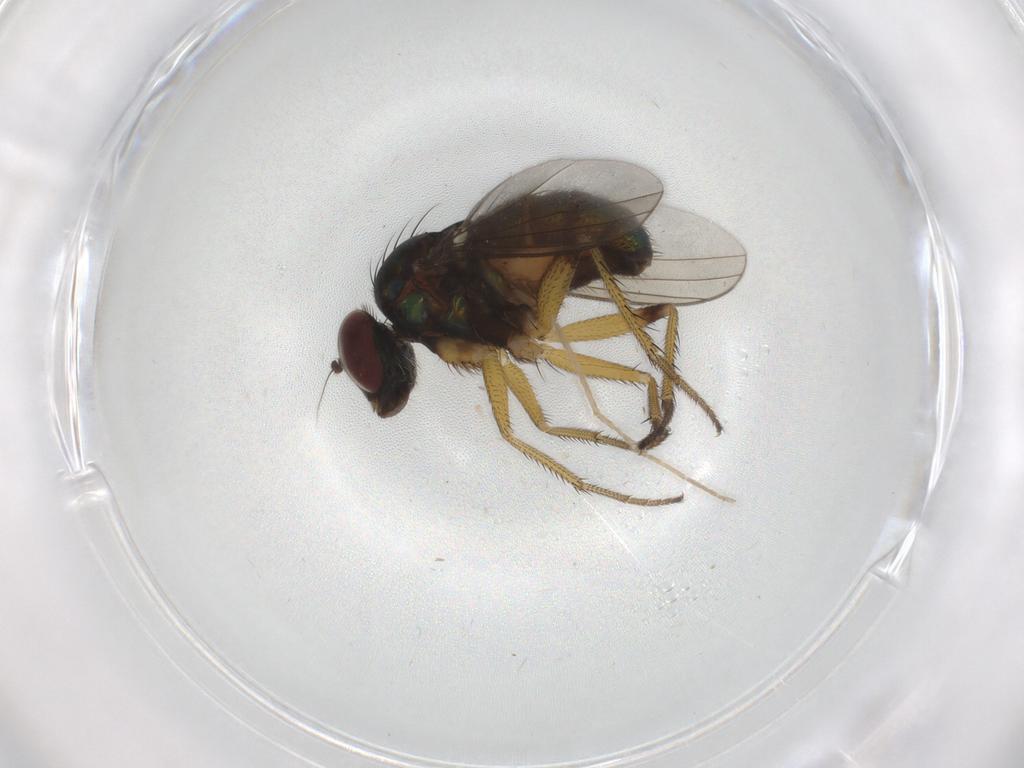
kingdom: Animalia
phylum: Arthropoda
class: Insecta
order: Diptera
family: Dolichopodidae
